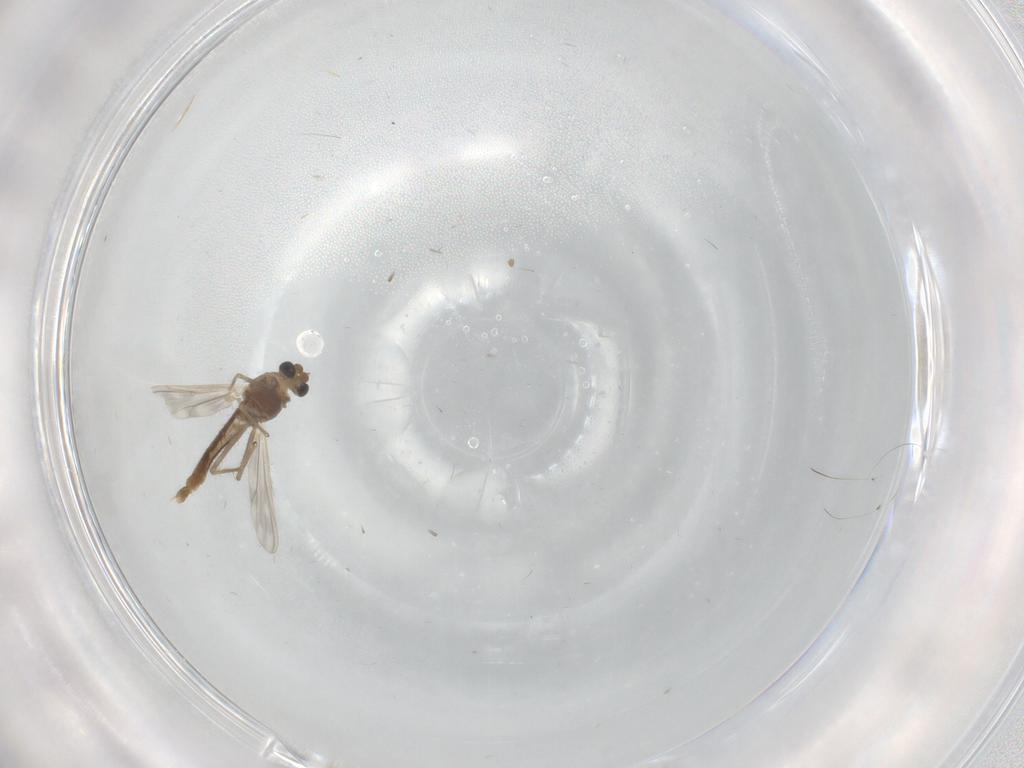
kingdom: Animalia
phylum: Arthropoda
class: Insecta
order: Diptera
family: Chironomidae
